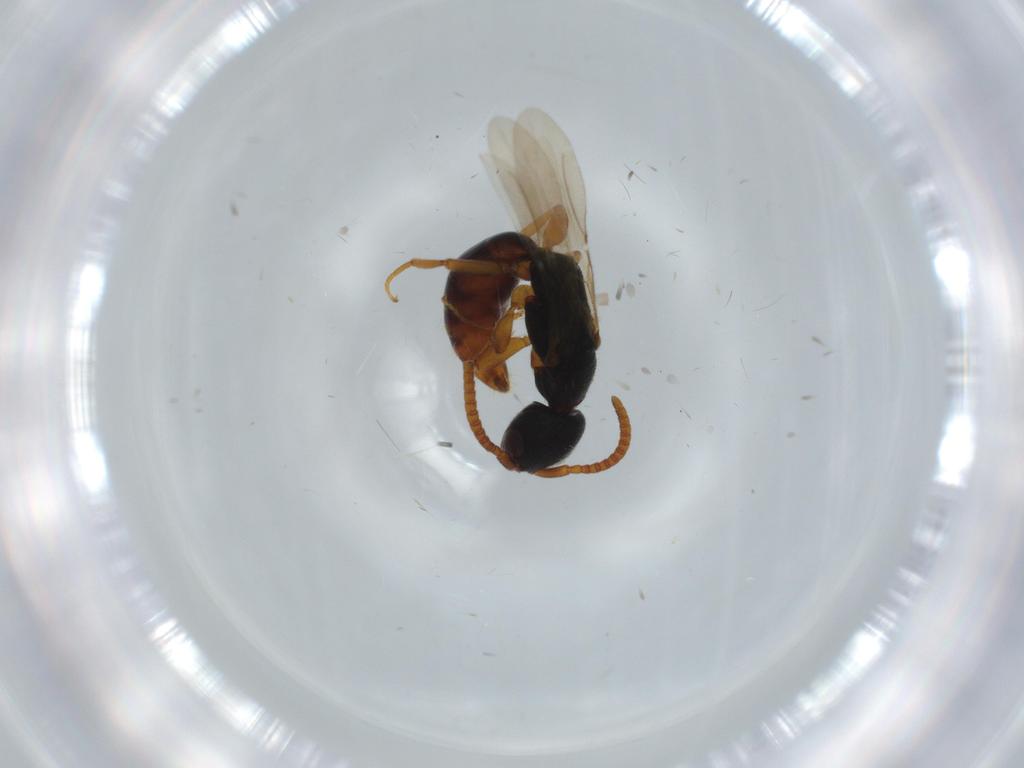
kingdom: Animalia
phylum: Arthropoda
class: Insecta
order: Hymenoptera
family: Bethylidae
